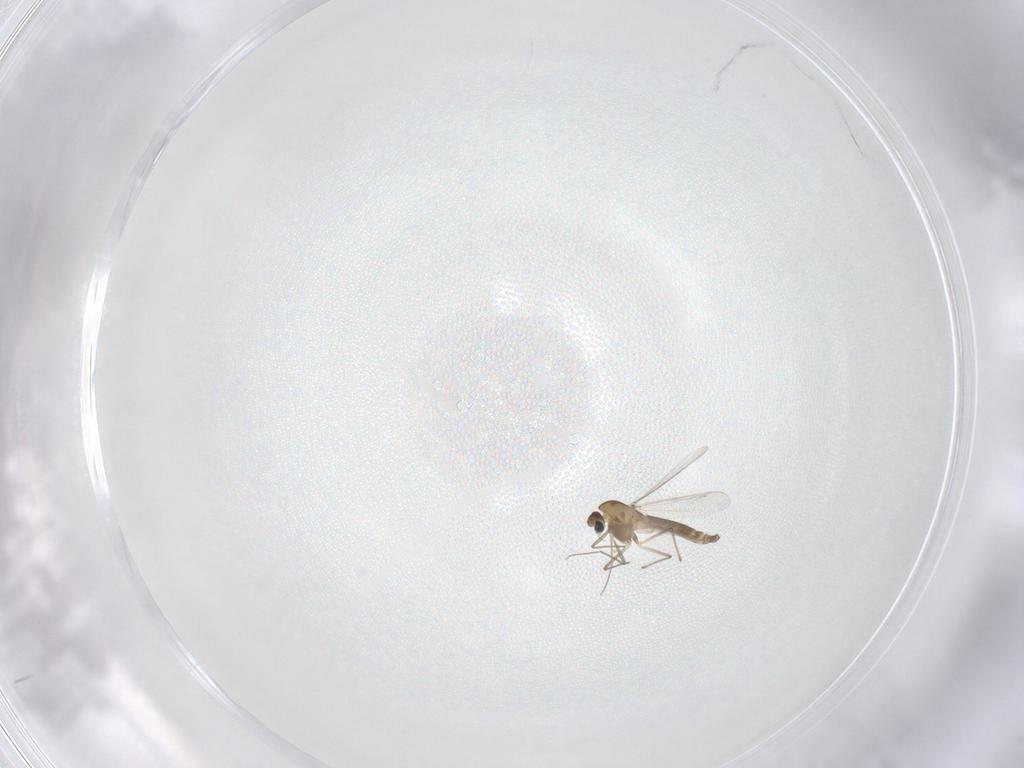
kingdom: Animalia
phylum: Arthropoda
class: Insecta
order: Diptera
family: Chironomidae
